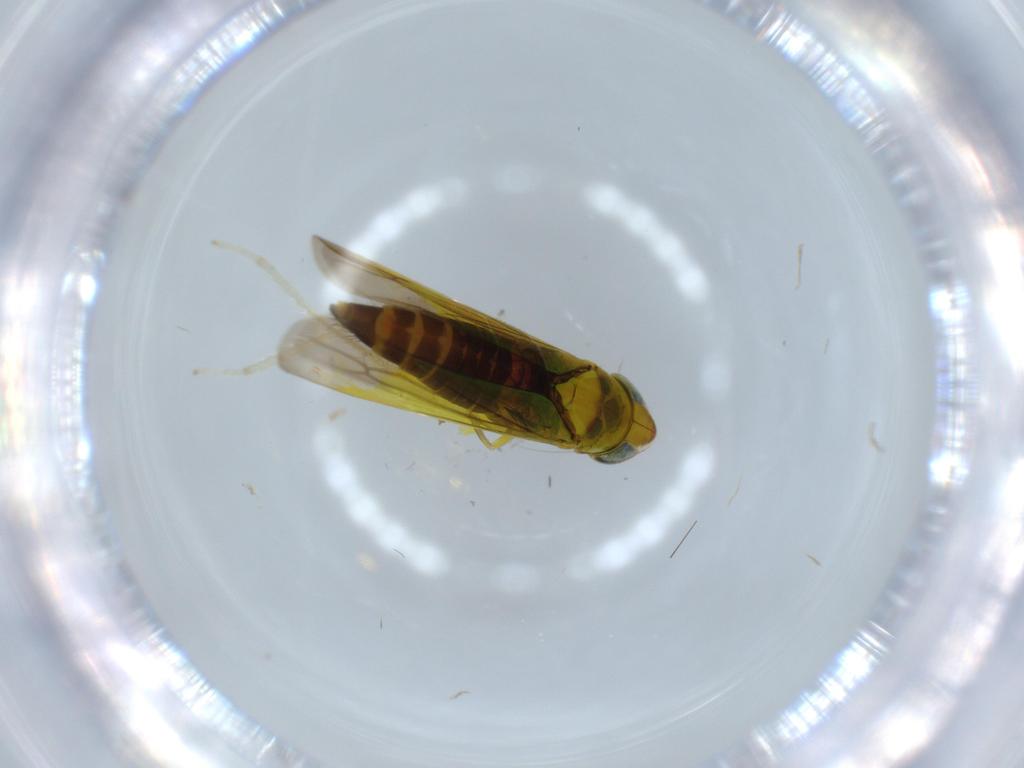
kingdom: Animalia
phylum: Arthropoda
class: Insecta
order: Hemiptera
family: Cicadellidae
